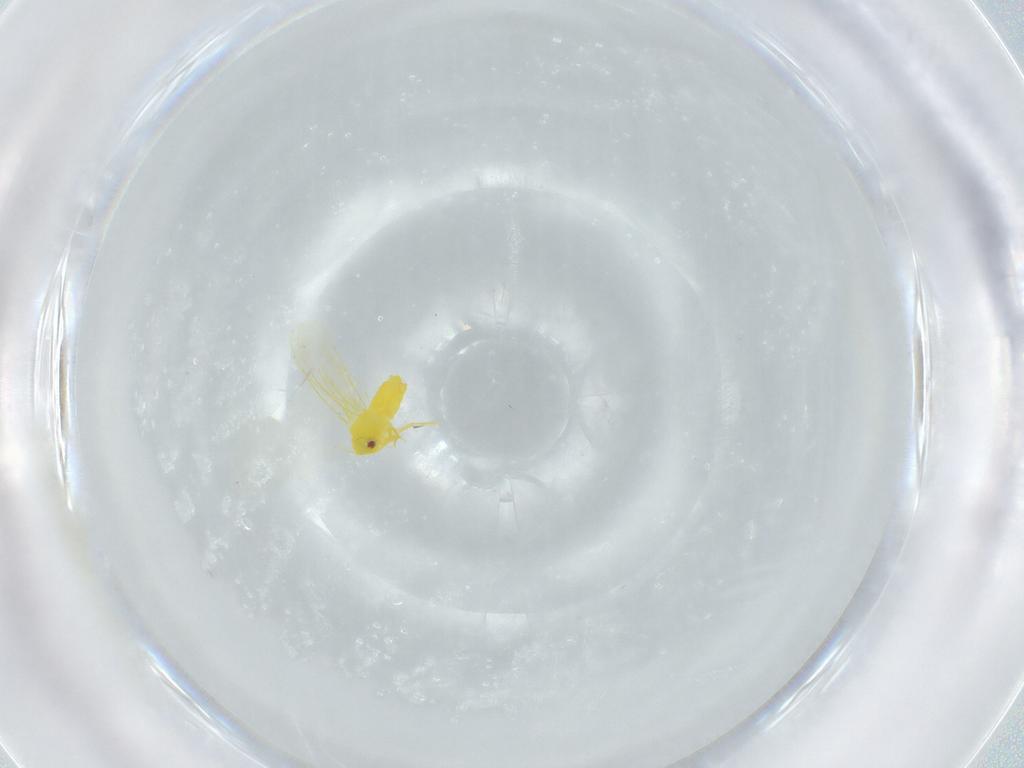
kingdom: Animalia
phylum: Arthropoda
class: Insecta
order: Hemiptera
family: Aleyrodidae
